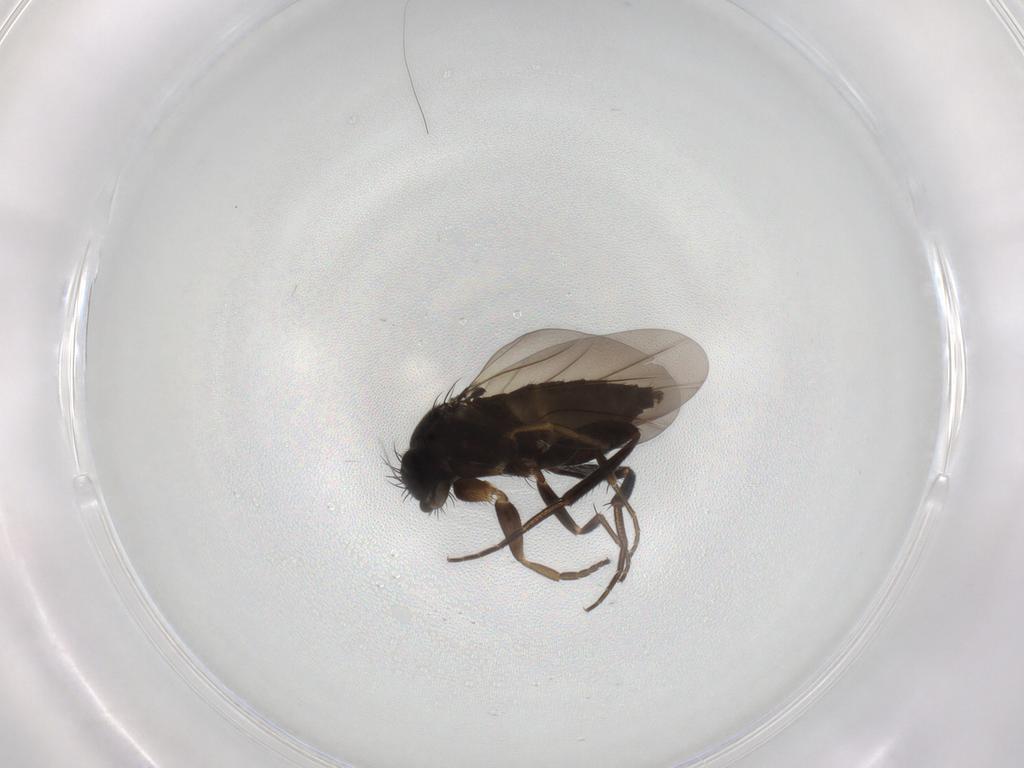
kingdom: Animalia
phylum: Arthropoda
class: Insecta
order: Diptera
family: Phoridae
